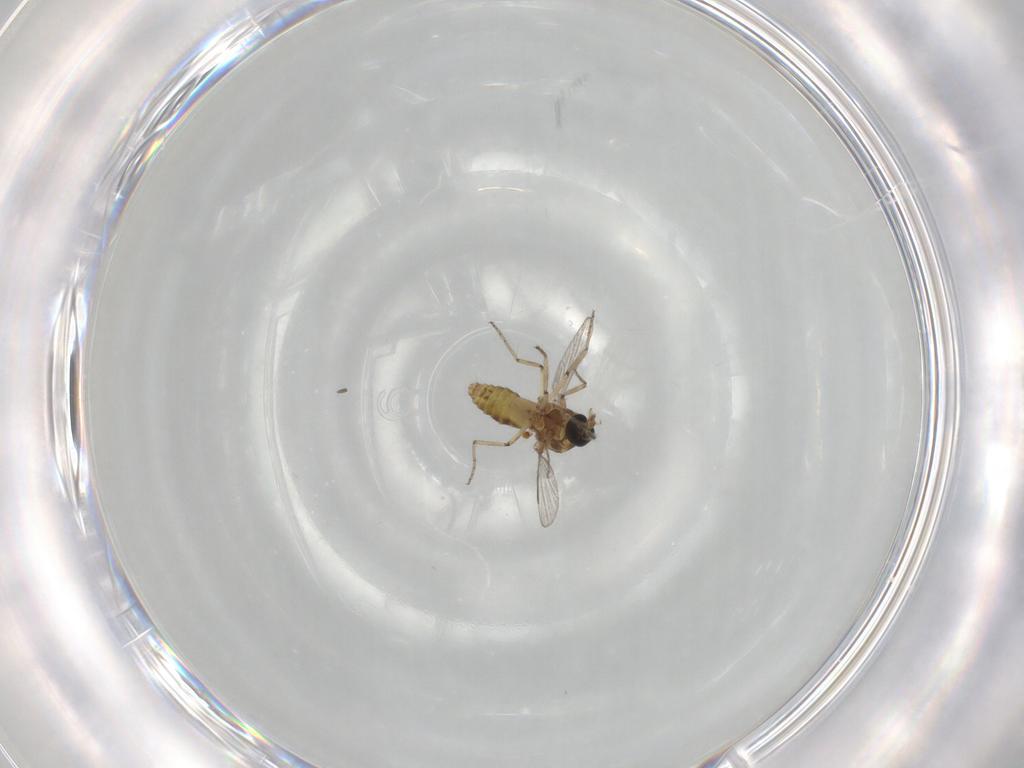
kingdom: Animalia
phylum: Arthropoda
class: Insecta
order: Diptera
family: Ceratopogonidae
